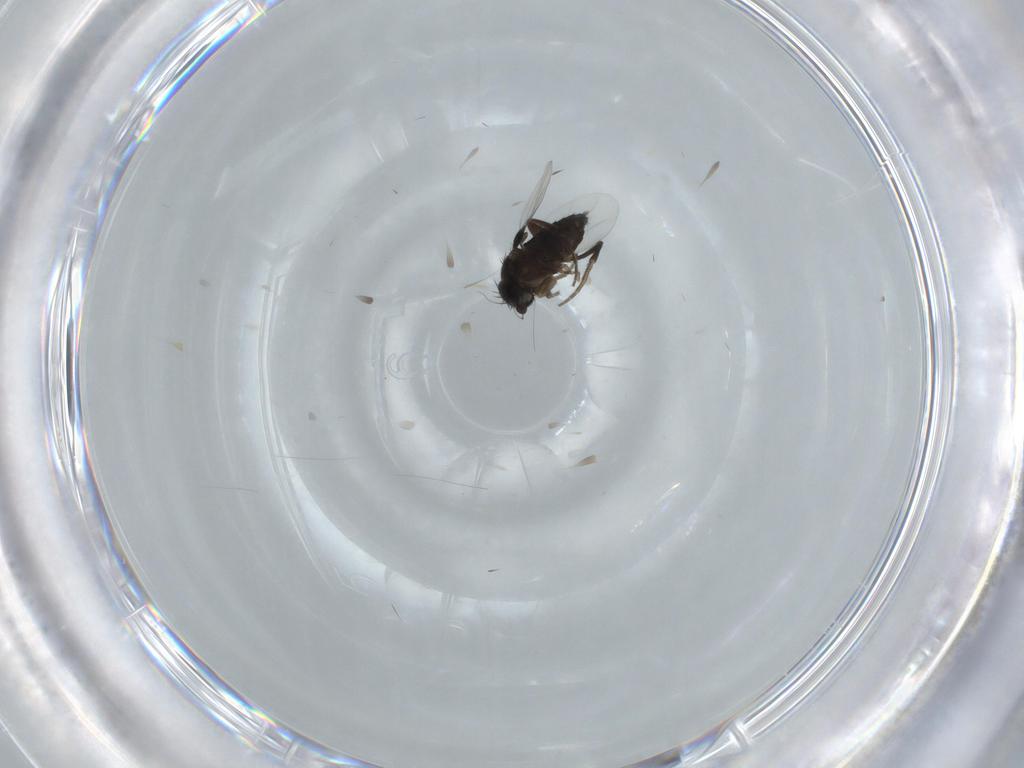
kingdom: Animalia
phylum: Arthropoda
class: Insecta
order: Diptera
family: Phoridae
